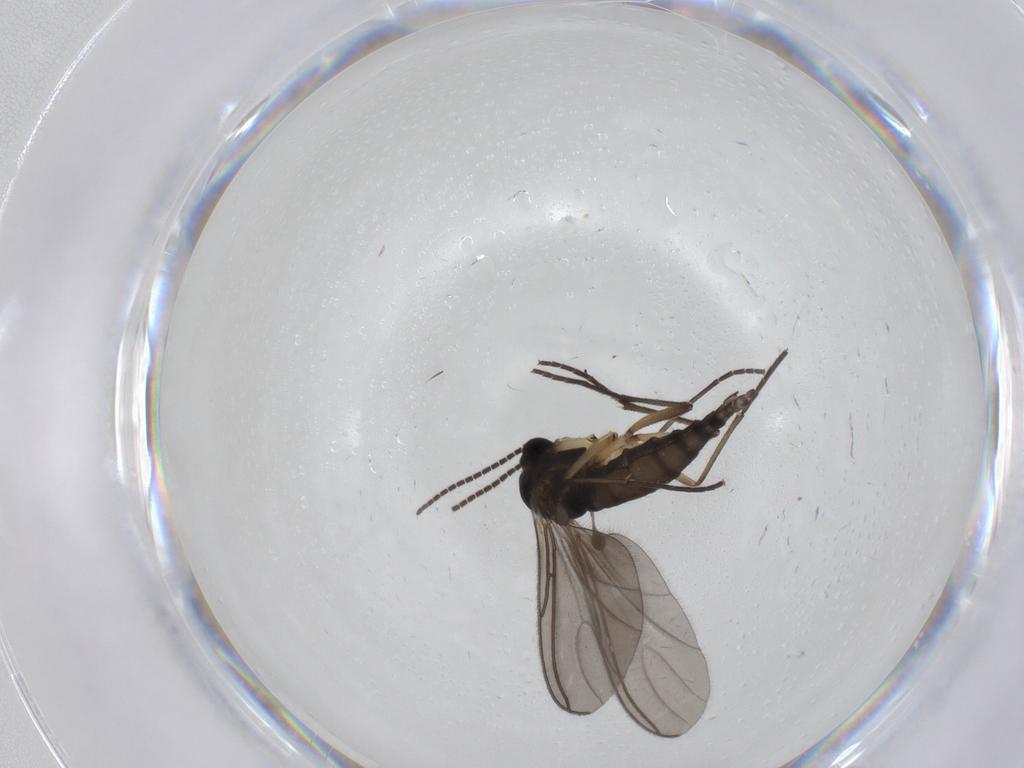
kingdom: Animalia
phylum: Arthropoda
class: Insecta
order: Diptera
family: Sciaridae
